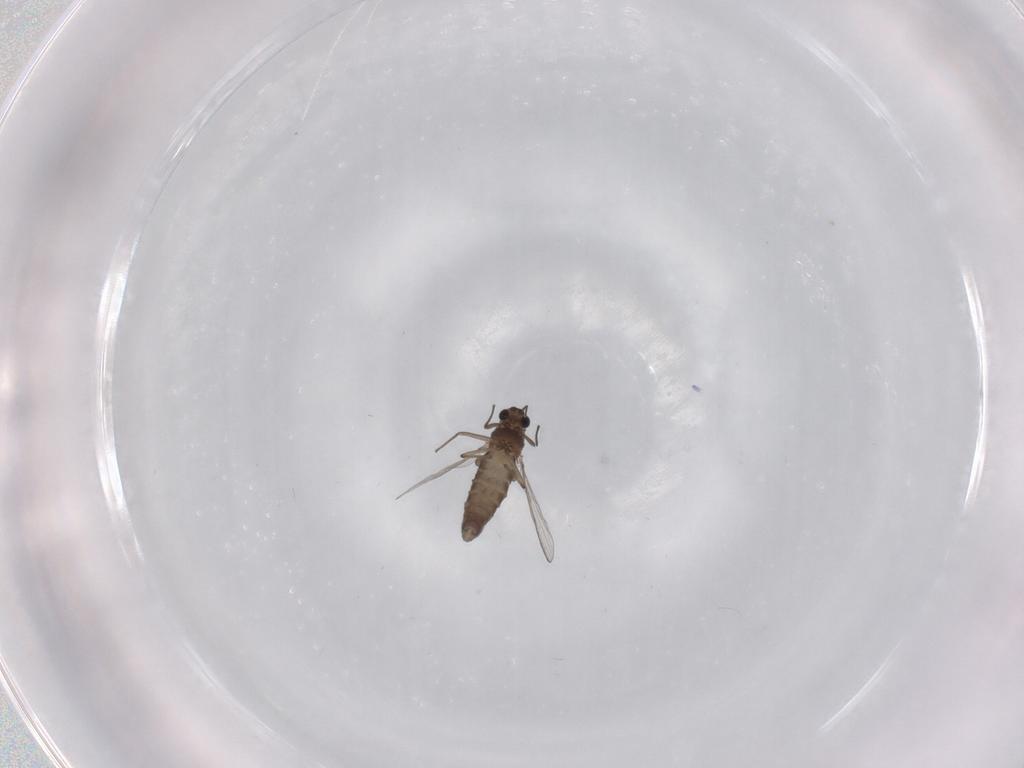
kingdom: Animalia
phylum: Arthropoda
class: Insecta
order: Diptera
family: Chironomidae
